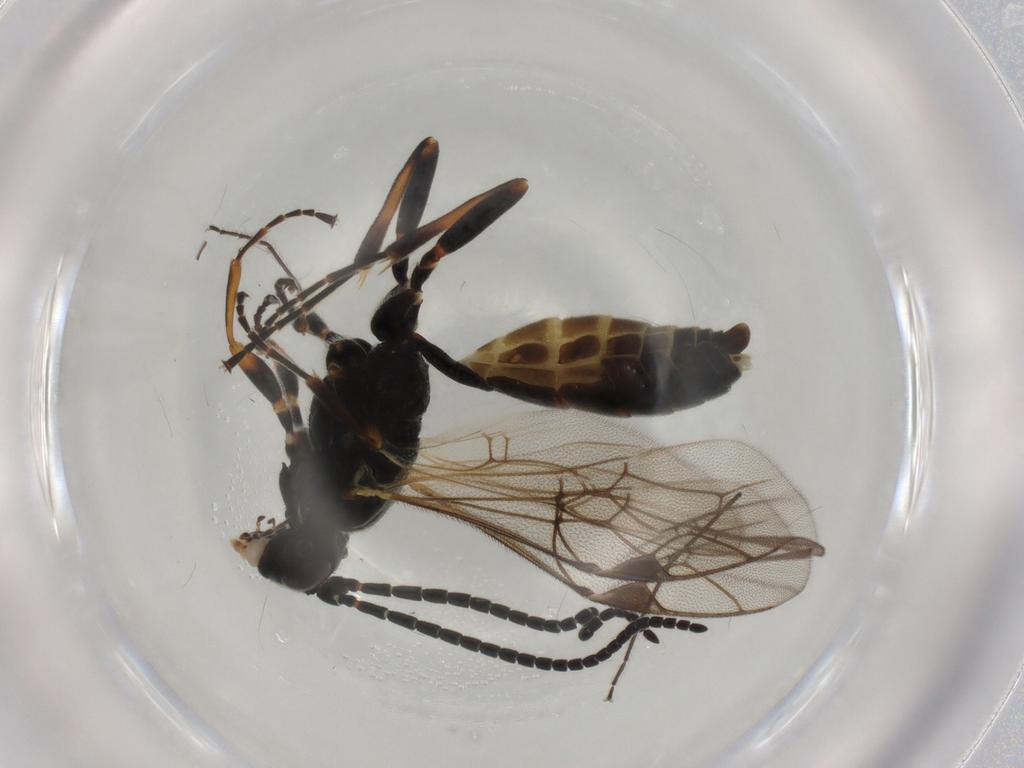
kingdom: Animalia
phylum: Arthropoda
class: Insecta
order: Hymenoptera
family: Ichneumonidae
